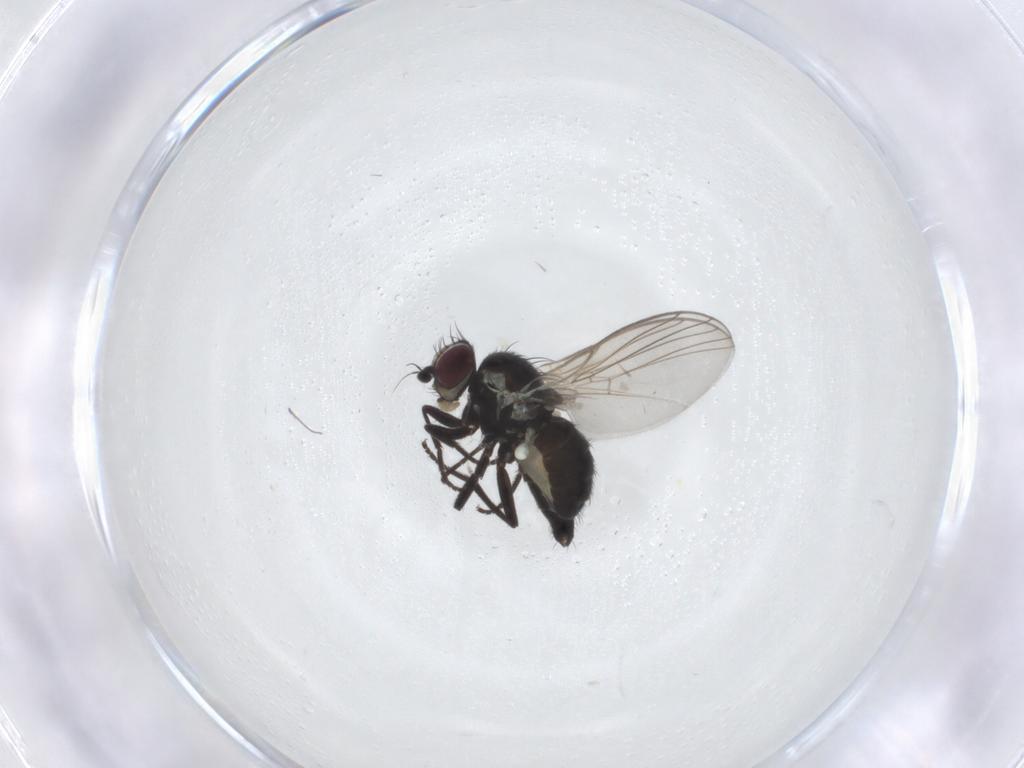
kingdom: Animalia
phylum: Arthropoda
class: Insecta
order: Diptera
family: Agromyzidae
